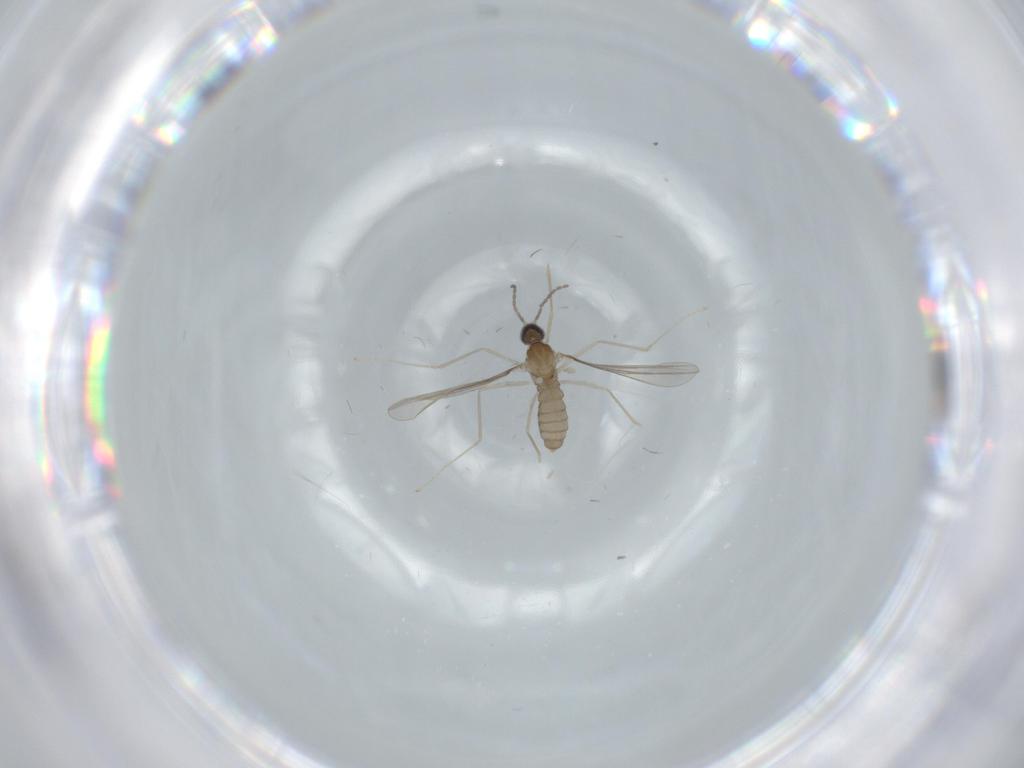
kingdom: Animalia
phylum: Arthropoda
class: Insecta
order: Diptera
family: Cecidomyiidae
